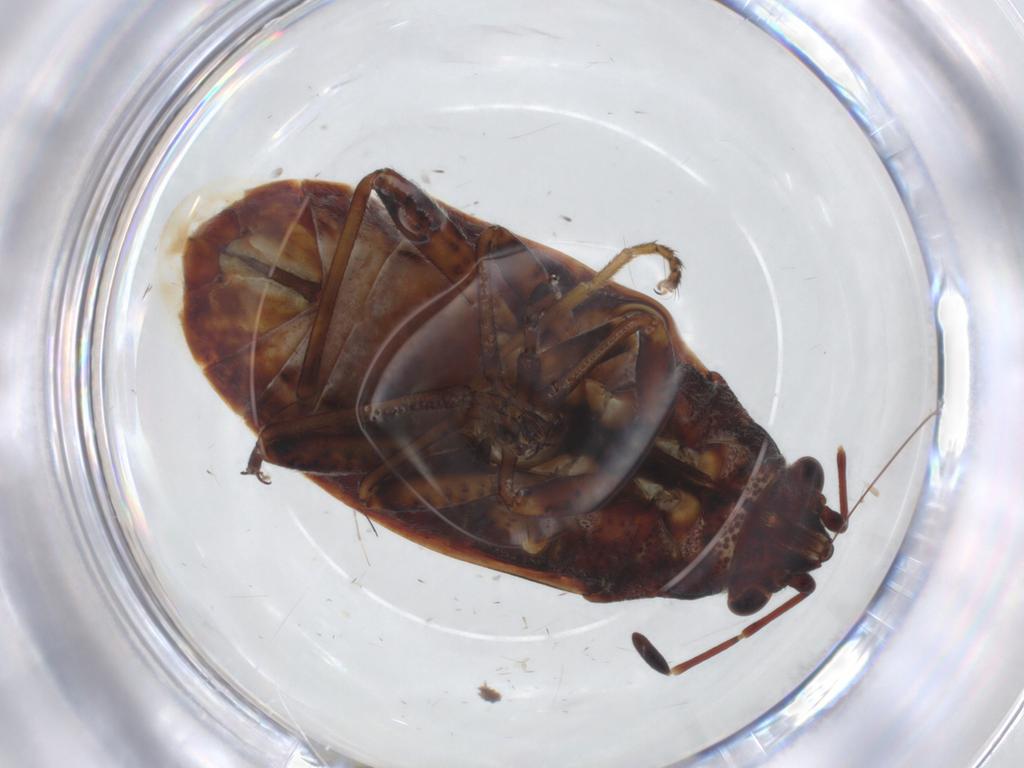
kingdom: Animalia
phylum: Arthropoda
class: Insecta
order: Hemiptera
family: Lygaeidae
